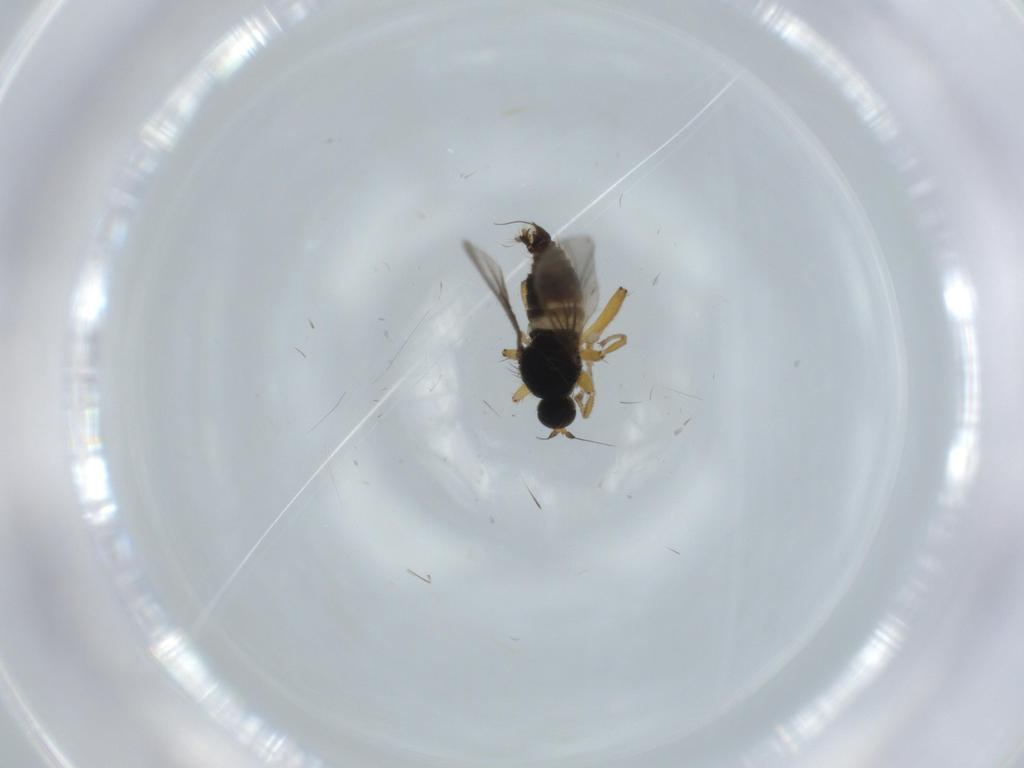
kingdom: Animalia
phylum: Arthropoda
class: Insecta
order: Diptera
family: Hybotidae
